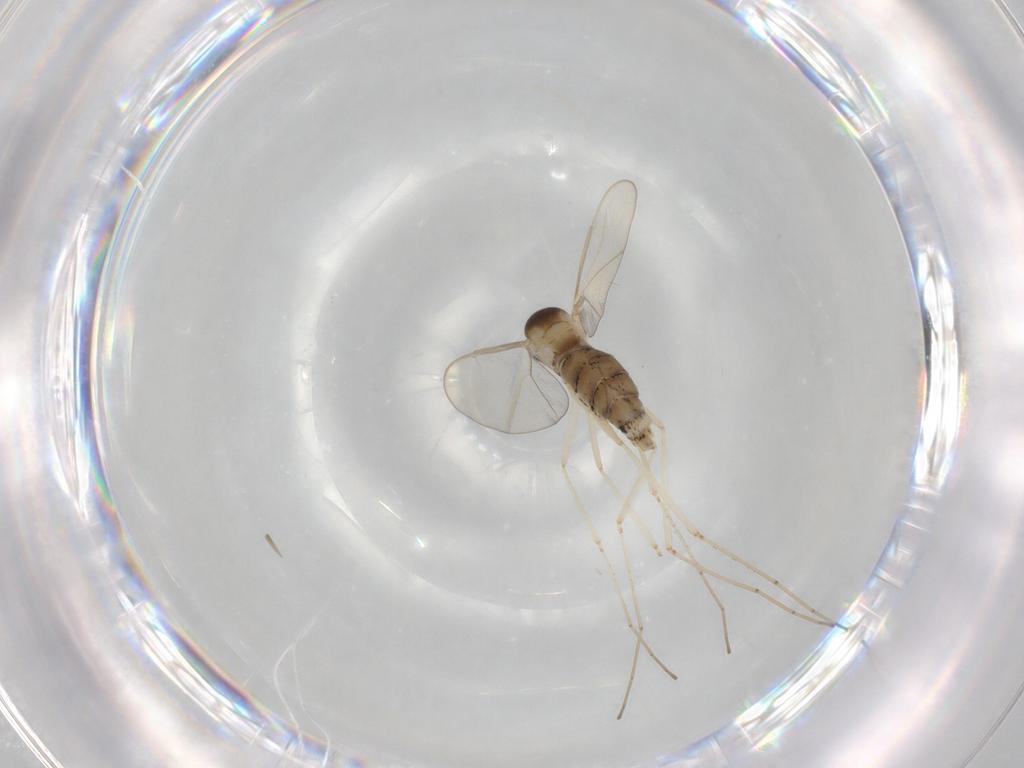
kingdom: Animalia
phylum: Arthropoda
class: Insecta
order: Diptera
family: Cecidomyiidae
